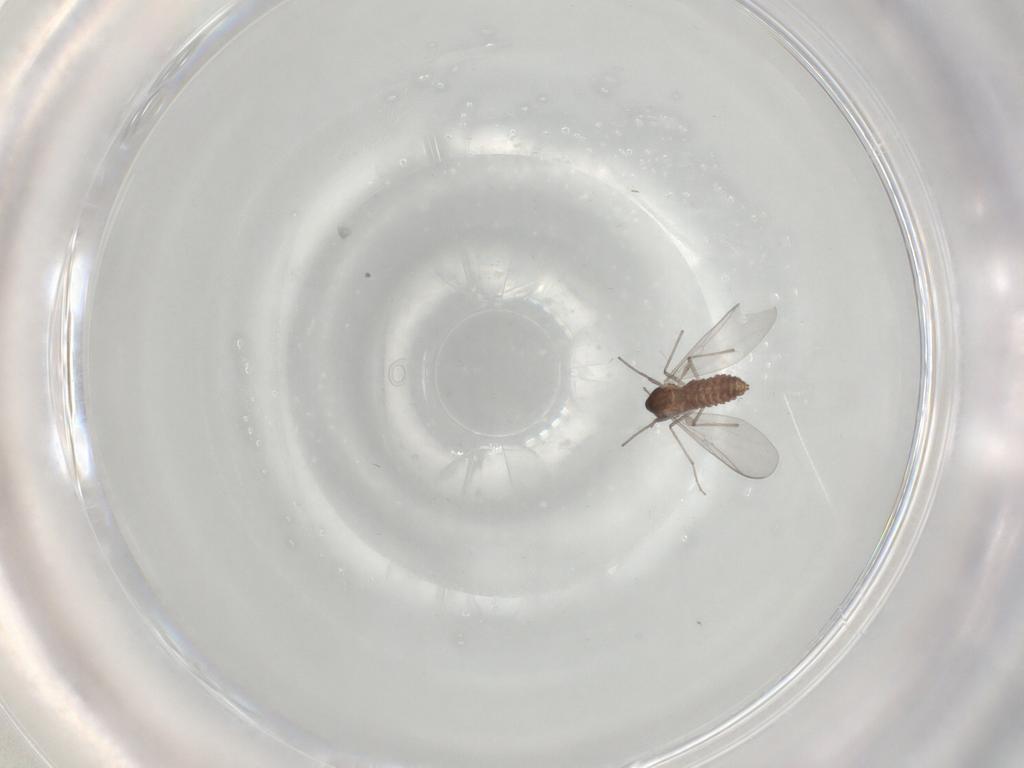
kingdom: Animalia
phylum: Arthropoda
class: Insecta
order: Diptera
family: Chironomidae
